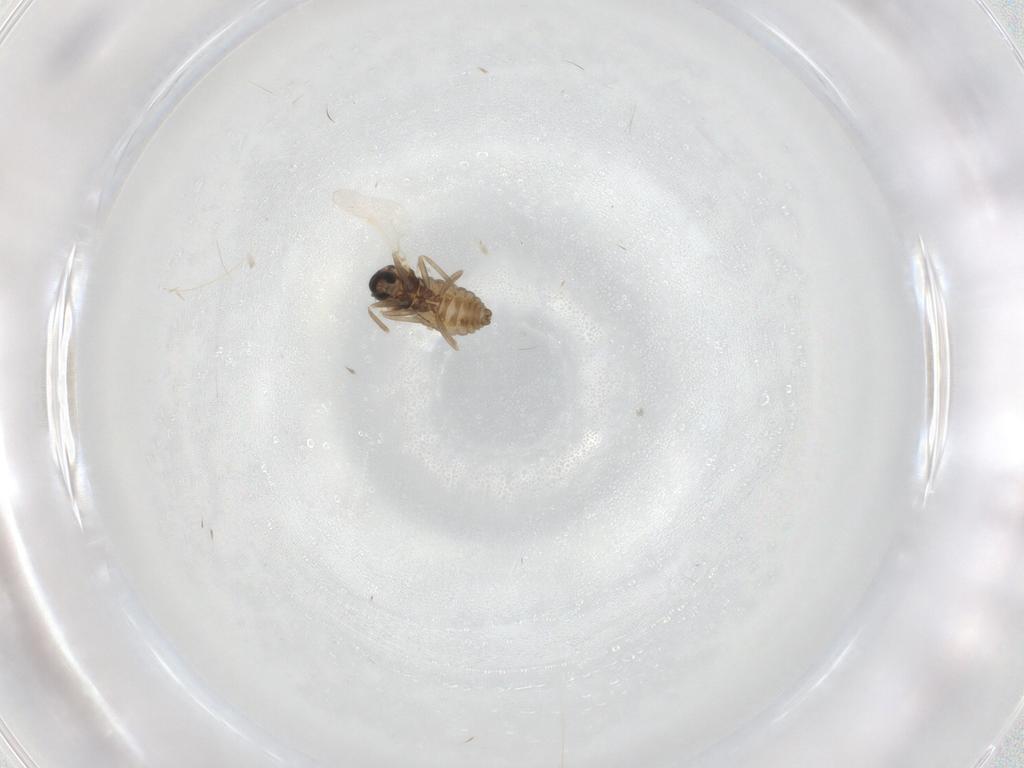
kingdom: Animalia
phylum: Arthropoda
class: Insecta
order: Diptera
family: Cecidomyiidae
